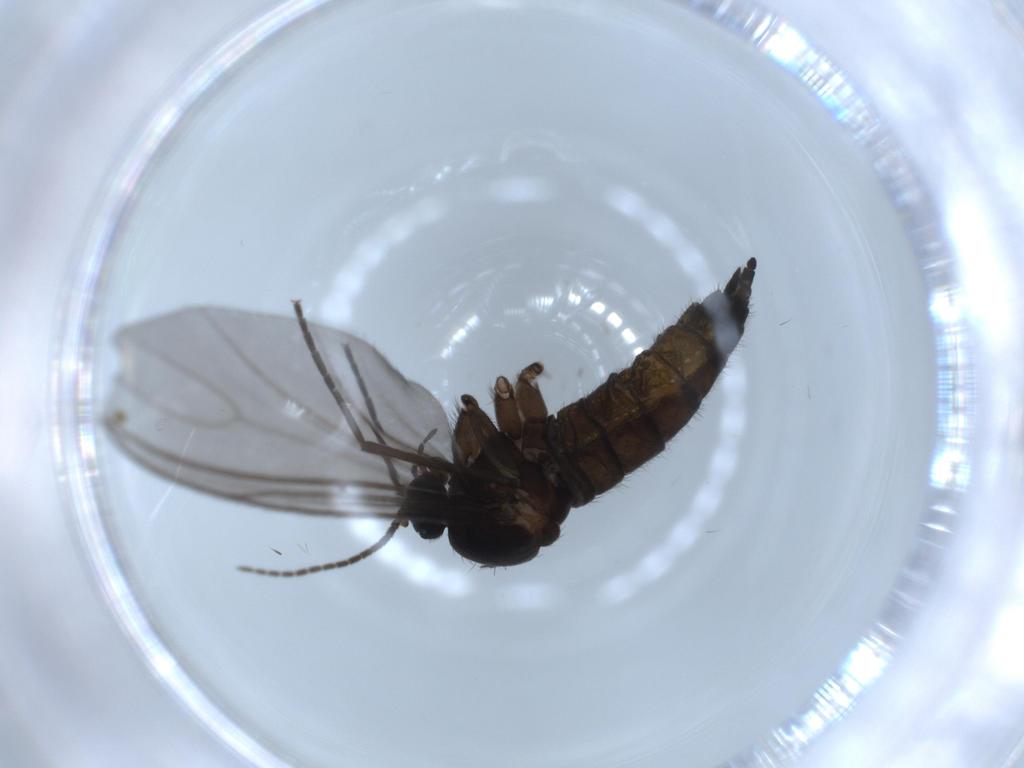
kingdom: Animalia
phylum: Arthropoda
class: Insecta
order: Diptera
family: Sciaridae
